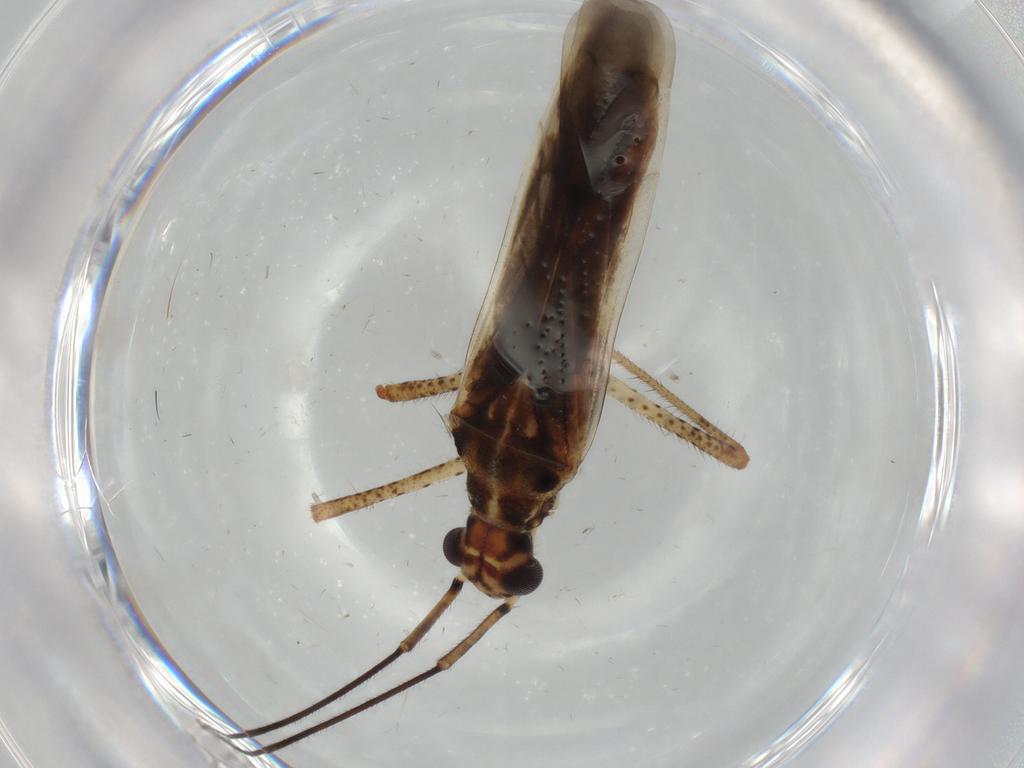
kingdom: Animalia
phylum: Arthropoda
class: Insecta
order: Hemiptera
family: Miridae
